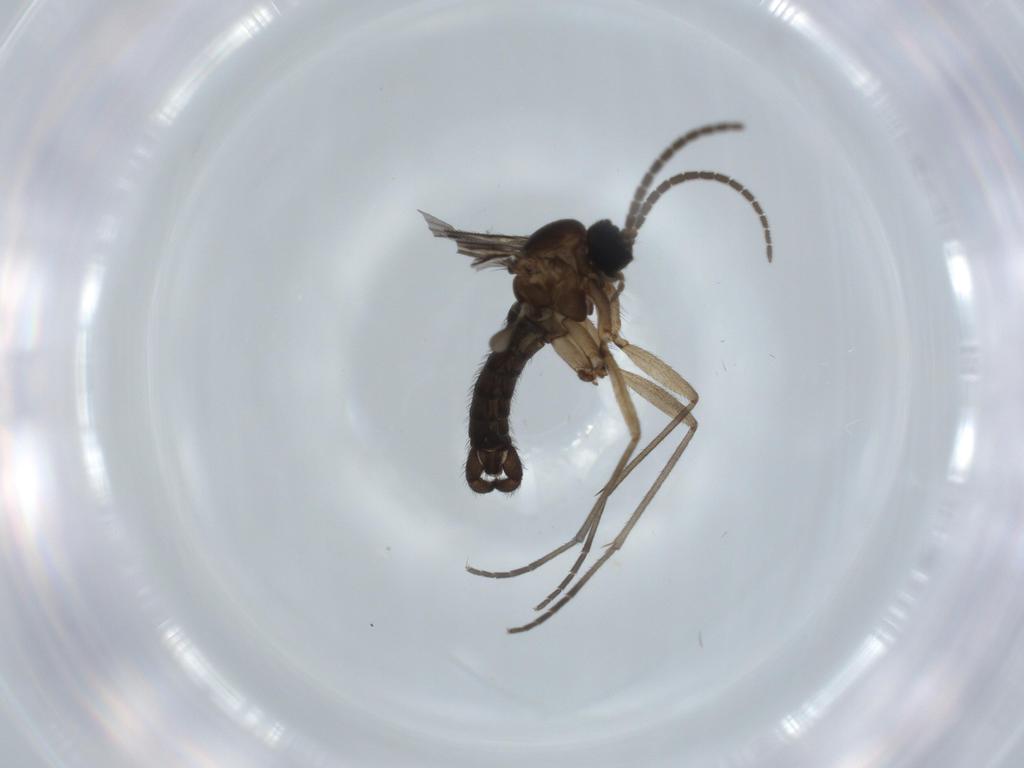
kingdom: Animalia
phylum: Arthropoda
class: Insecta
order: Diptera
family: Sciaridae
